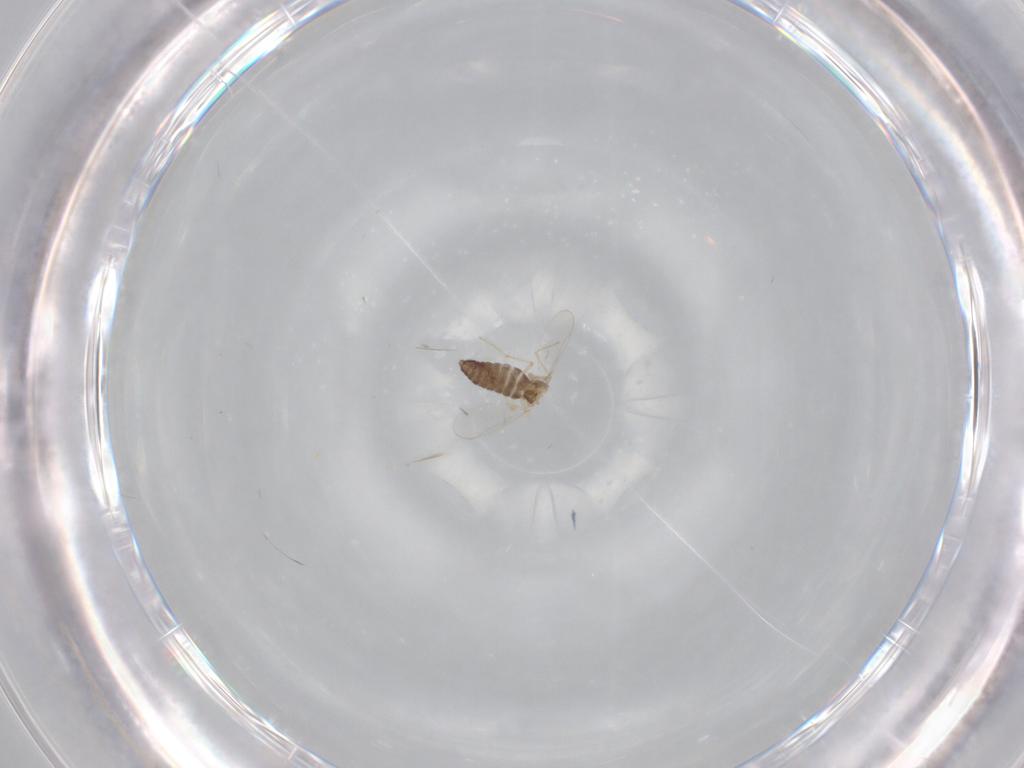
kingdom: Animalia
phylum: Arthropoda
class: Insecta
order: Diptera
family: Chironomidae
